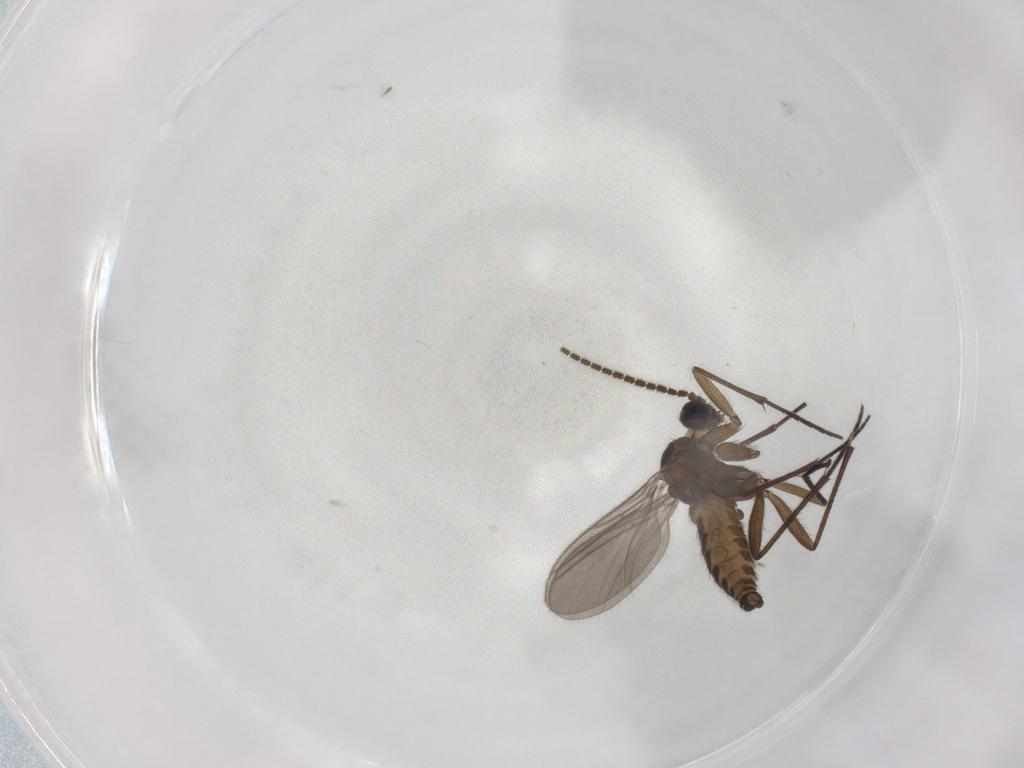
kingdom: Animalia
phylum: Arthropoda
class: Insecta
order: Diptera
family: Sciaridae
